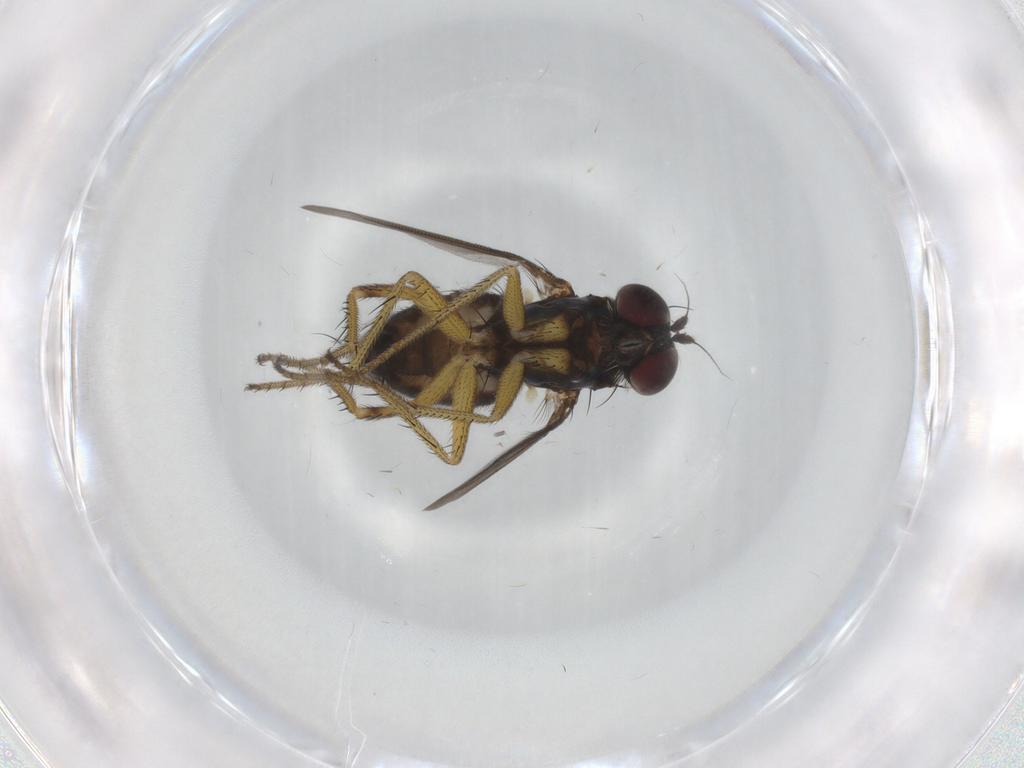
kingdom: Animalia
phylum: Arthropoda
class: Insecta
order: Diptera
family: Dolichopodidae
